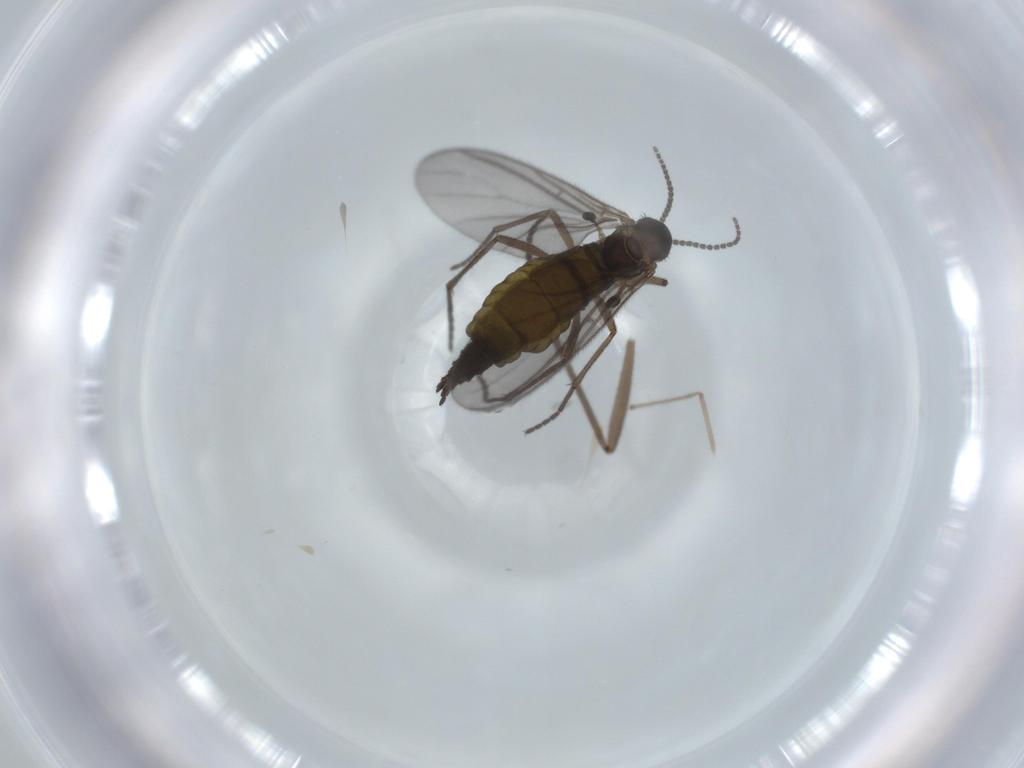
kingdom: Animalia
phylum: Arthropoda
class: Insecta
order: Diptera
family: Sciaridae
